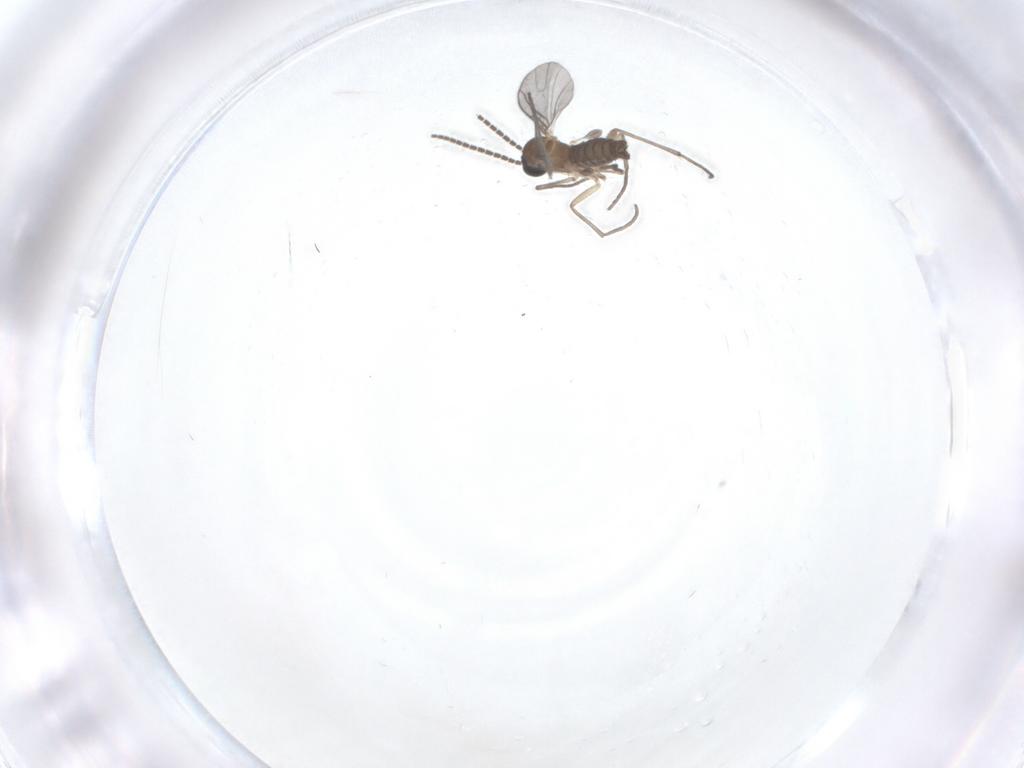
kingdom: Animalia
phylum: Arthropoda
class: Insecta
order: Diptera
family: Sciaridae
